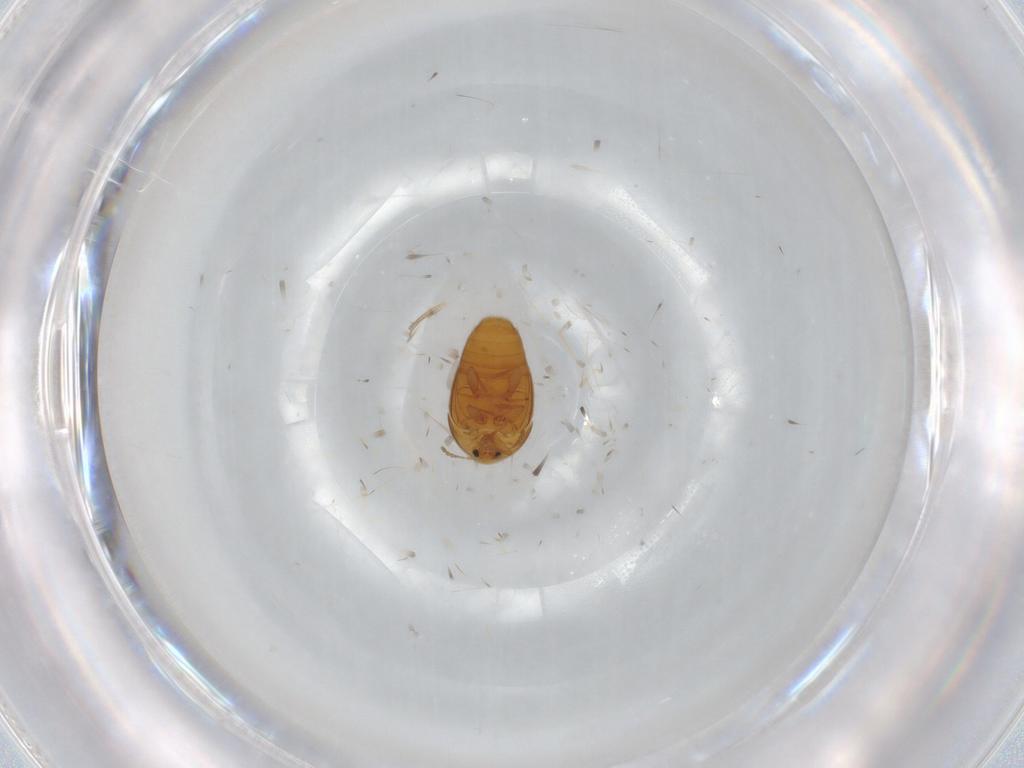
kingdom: Animalia
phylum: Arthropoda
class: Insecta
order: Coleoptera
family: Corylophidae
